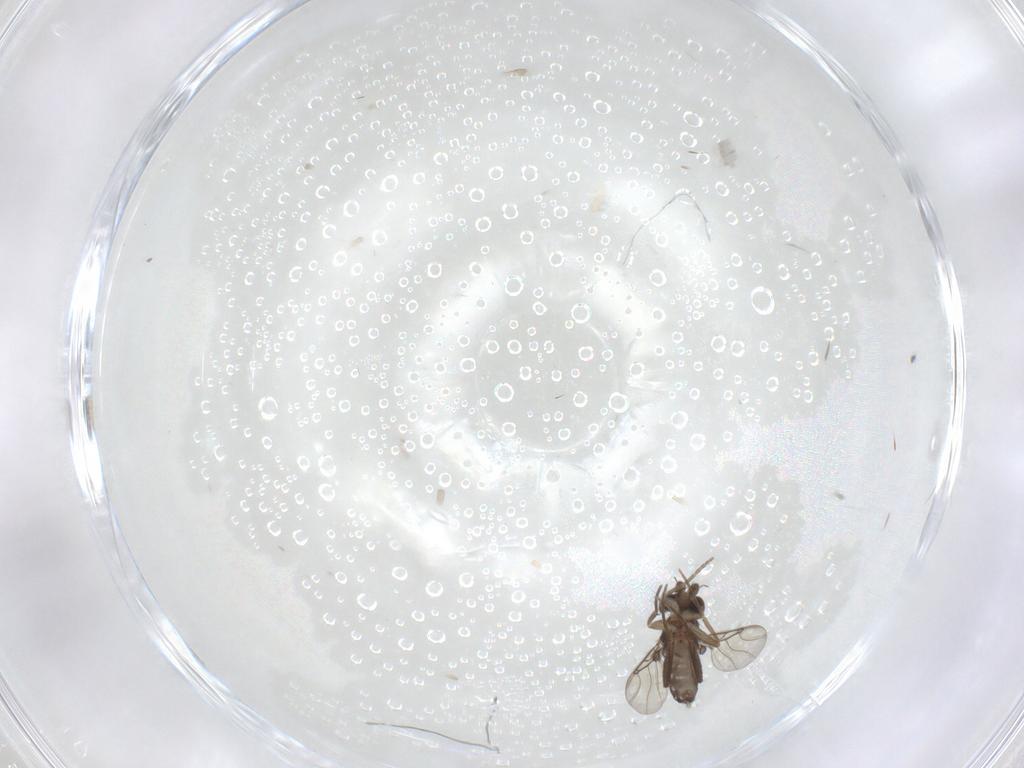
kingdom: Animalia
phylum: Arthropoda
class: Insecta
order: Diptera
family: Phoridae
